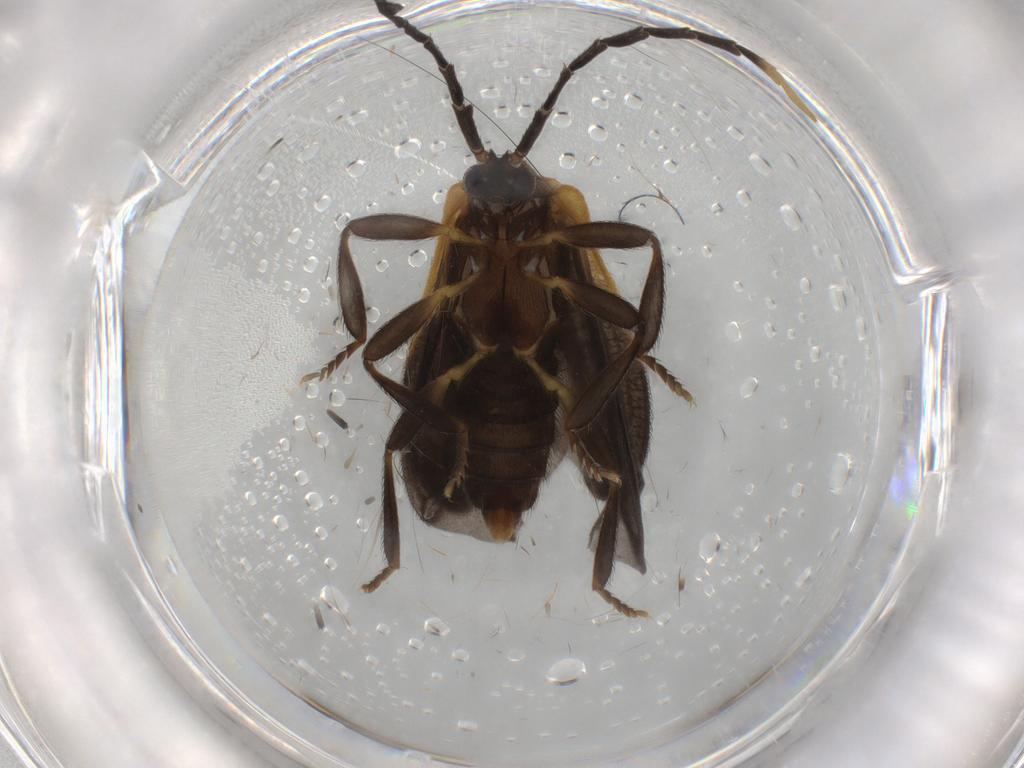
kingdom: Animalia
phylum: Arthropoda
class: Insecta
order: Coleoptera
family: Lycidae
